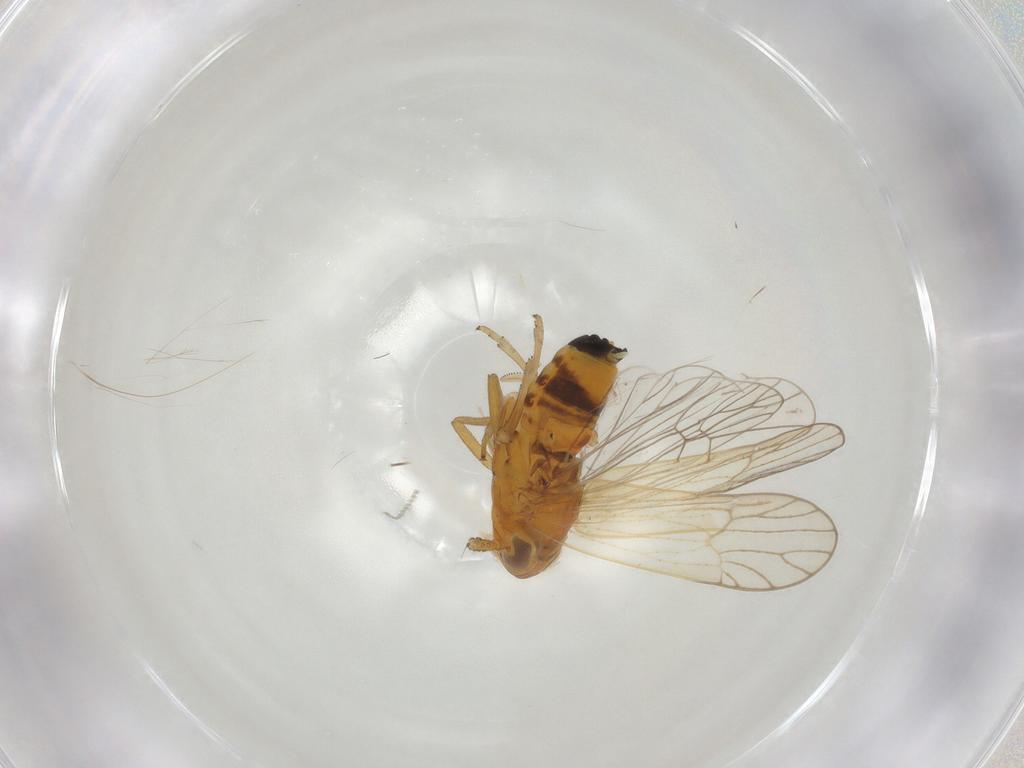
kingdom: Animalia
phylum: Arthropoda
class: Insecta
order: Hemiptera
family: Delphacidae
